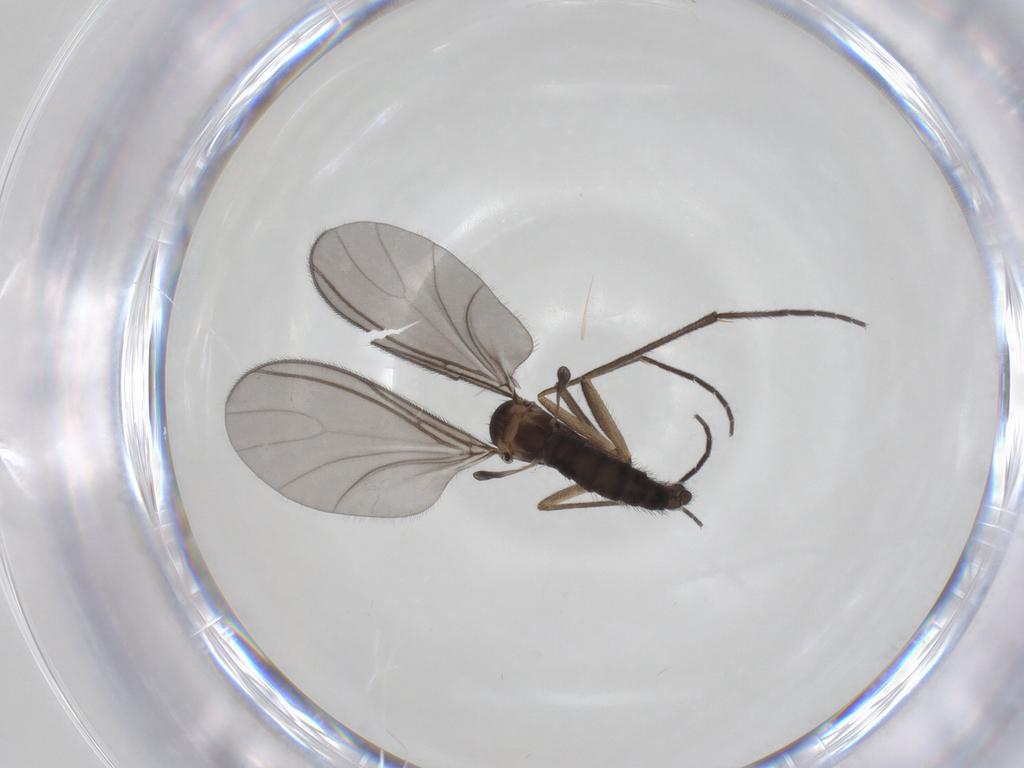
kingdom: Animalia
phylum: Arthropoda
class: Insecta
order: Diptera
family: Sciaridae
